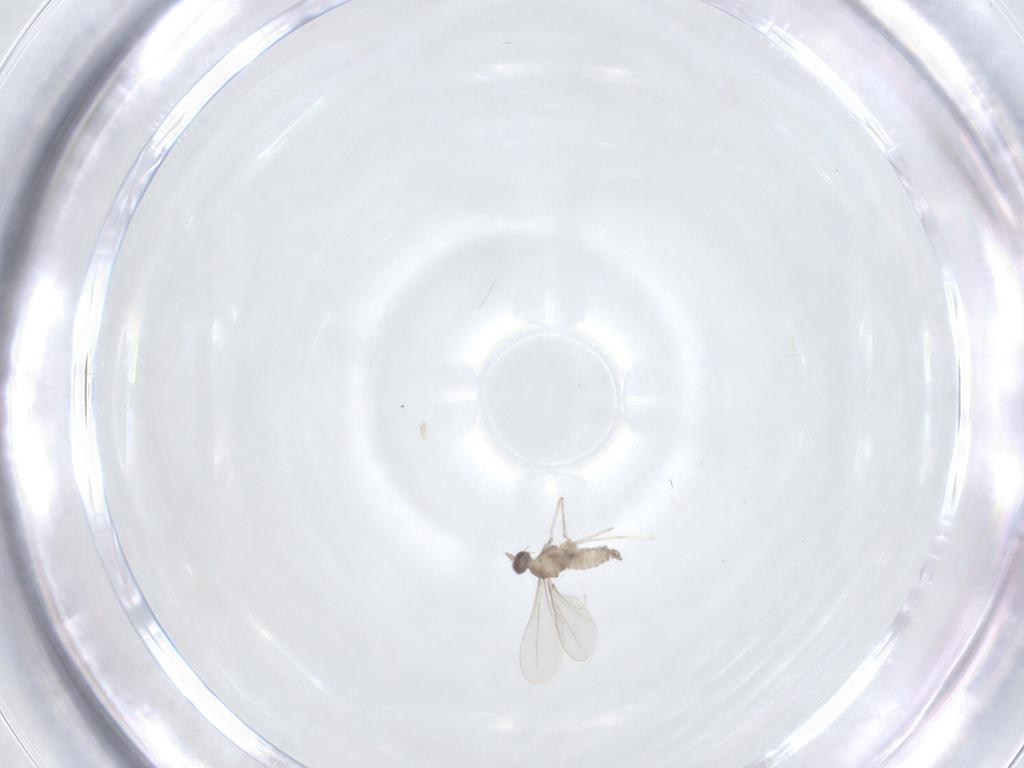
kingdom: Animalia
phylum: Arthropoda
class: Insecta
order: Diptera
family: Cecidomyiidae
